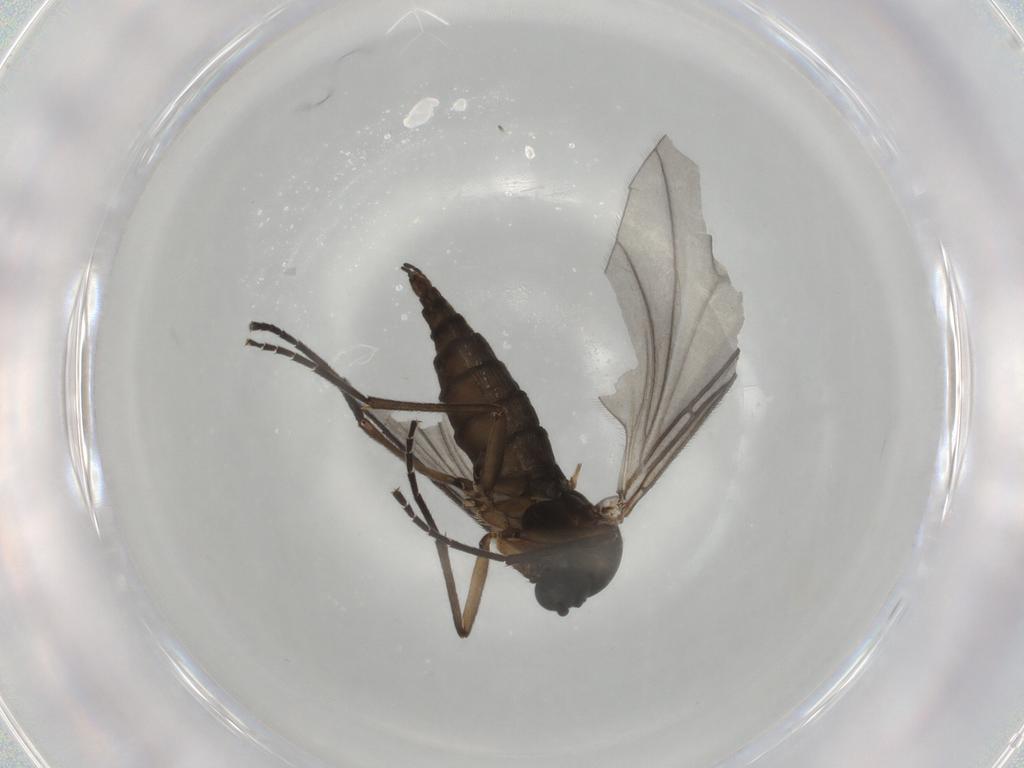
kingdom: Animalia
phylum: Arthropoda
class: Insecta
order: Diptera
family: Sciaridae
